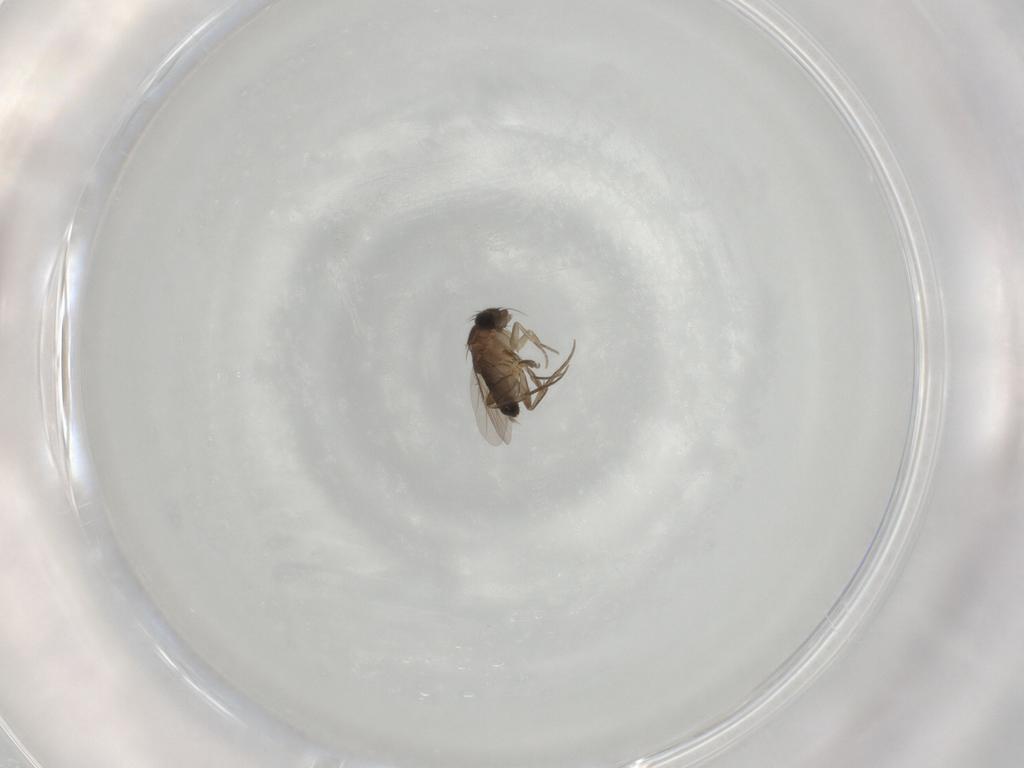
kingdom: Animalia
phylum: Arthropoda
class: Insecta
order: Diptera
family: Phoridae
